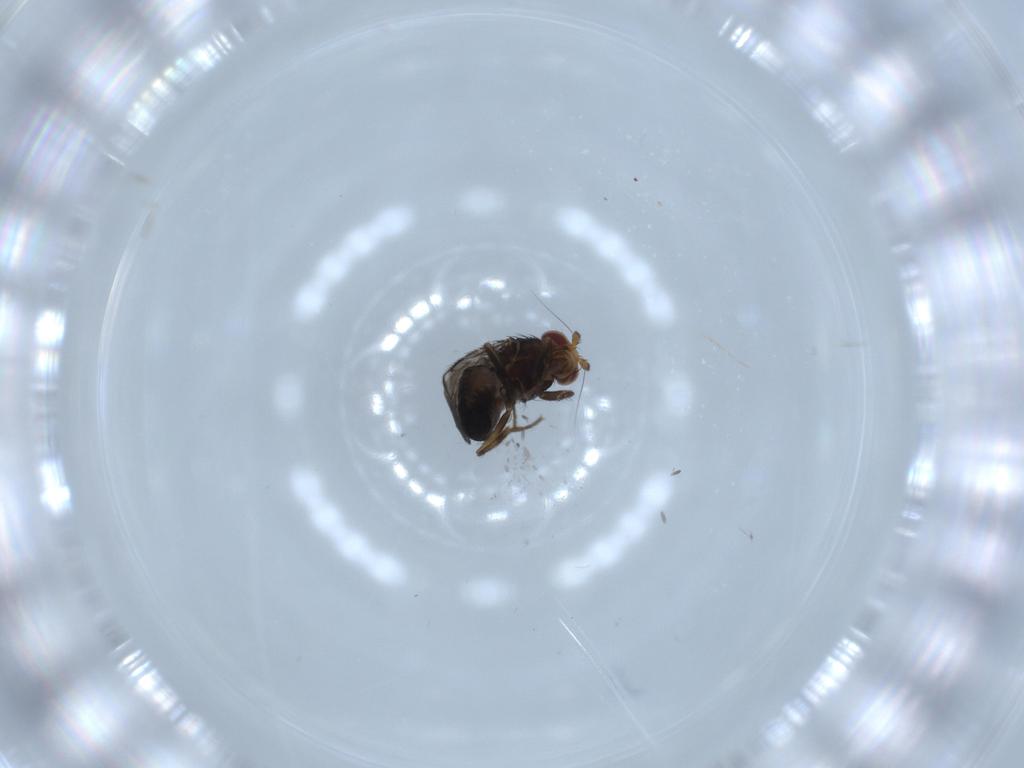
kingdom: Animalia
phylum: Arthropoda
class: Insecta
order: Diptera
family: Sphaeroceridae
